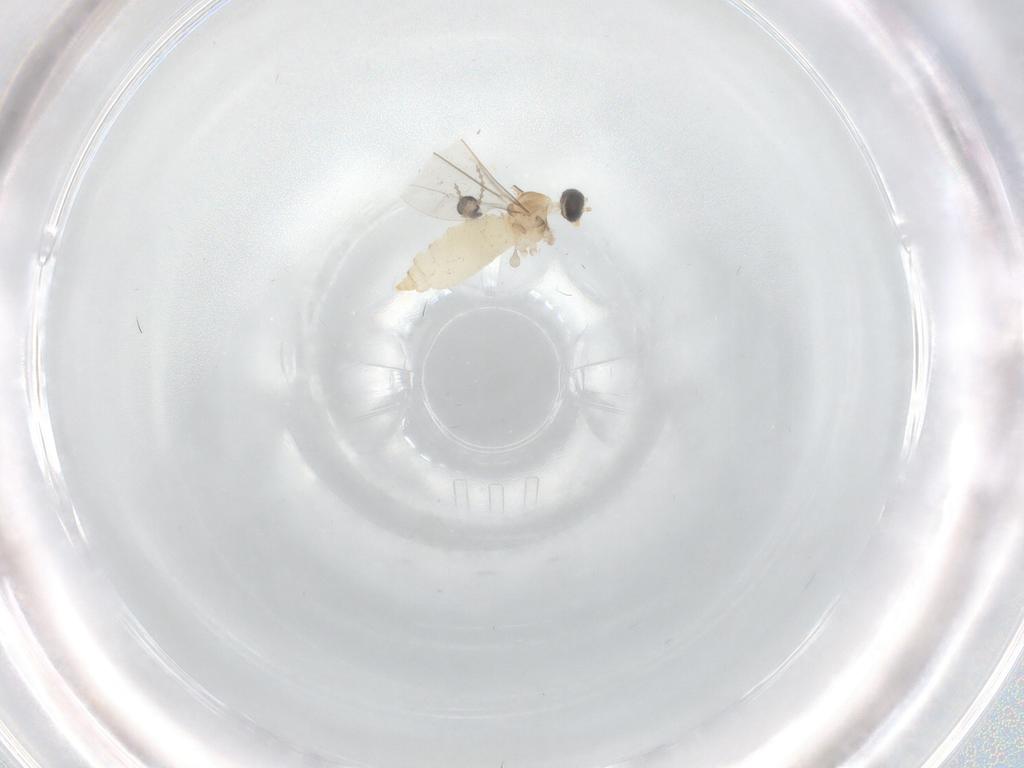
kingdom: Animalia
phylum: Arthropoda
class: Insecta
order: Diptera
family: Cecidomyiidae
